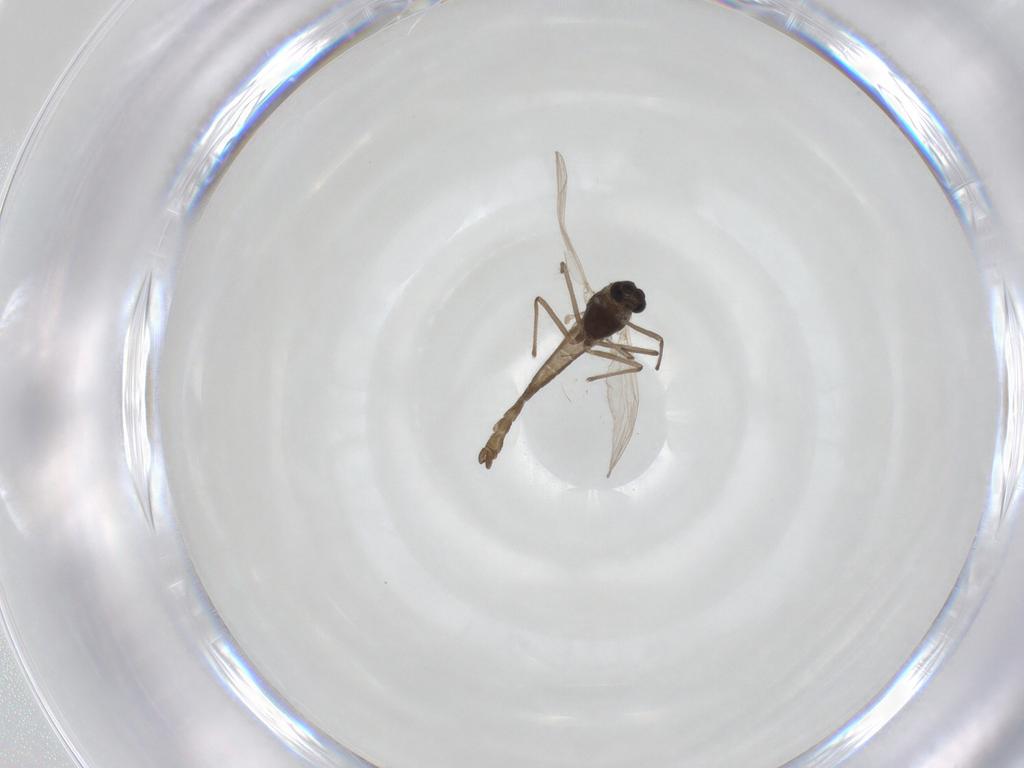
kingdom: Animalia
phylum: Arthropoda
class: Insecta
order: Diptera
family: Chironomidae
